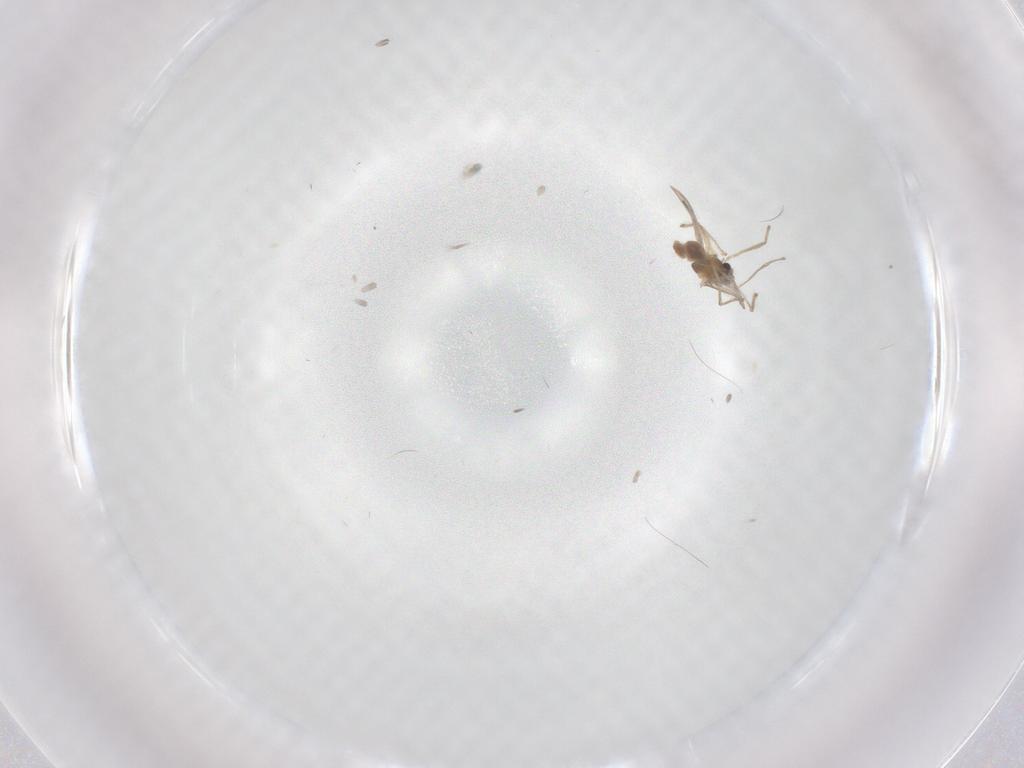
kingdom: Animalia
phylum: Arthropoda
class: Insecta
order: Diptera
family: Chironomidae
